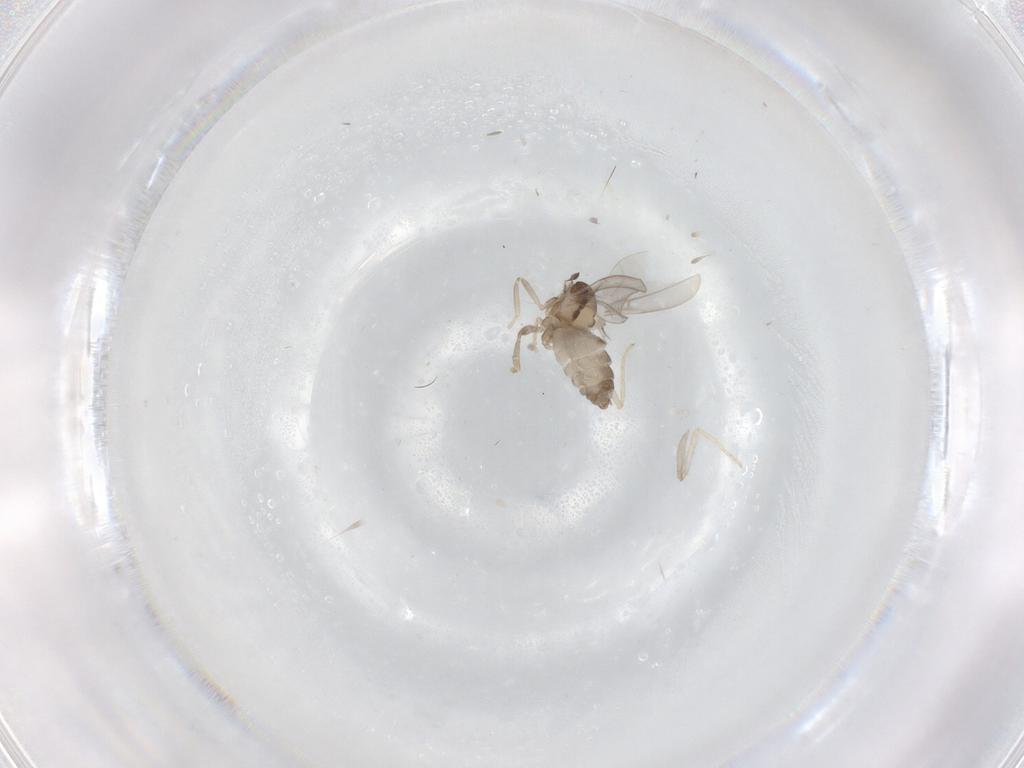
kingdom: Animalia
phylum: Arthropoda
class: Insecta
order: Diptera
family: Cecidomyiidae
